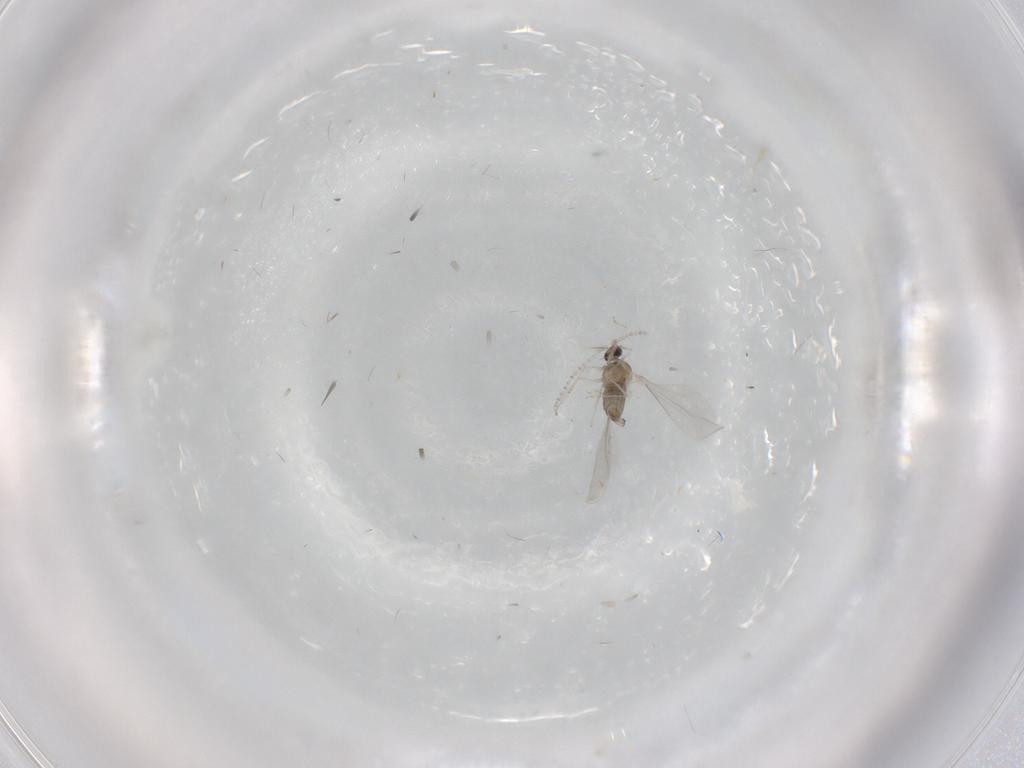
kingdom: Animalia
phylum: Arthropoda
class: Insecta
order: Diptera
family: Cecidomyiidae
